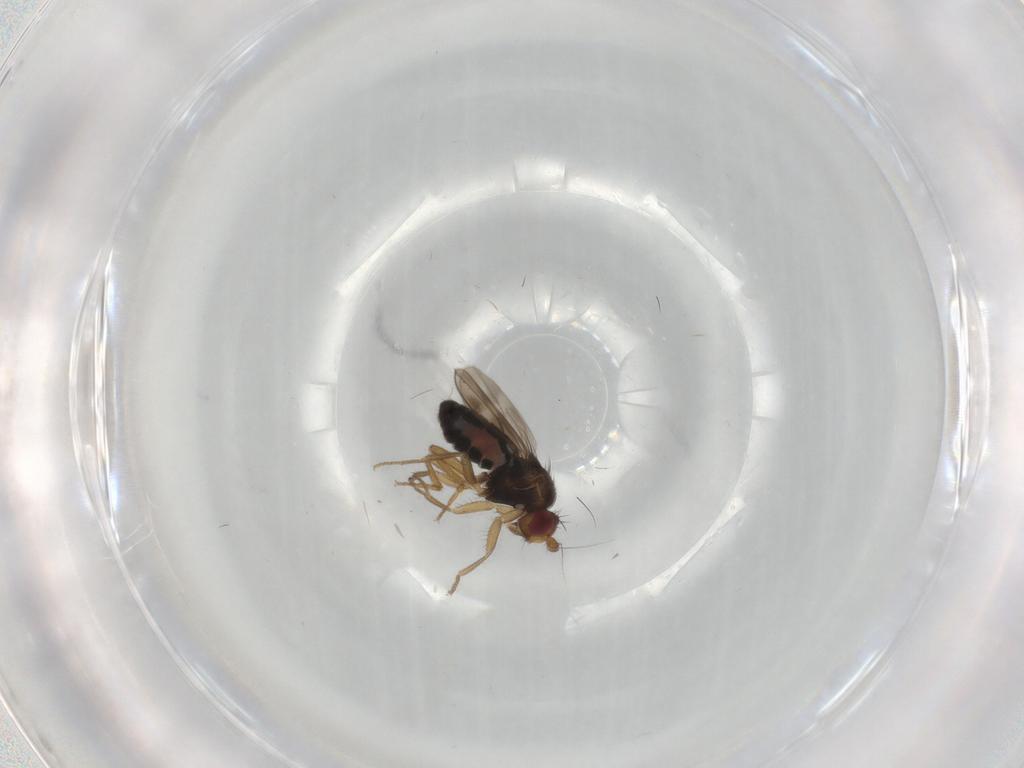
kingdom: Animalia
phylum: Arthropoda
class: Insecta
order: Diptera
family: Sphaeroceridae
